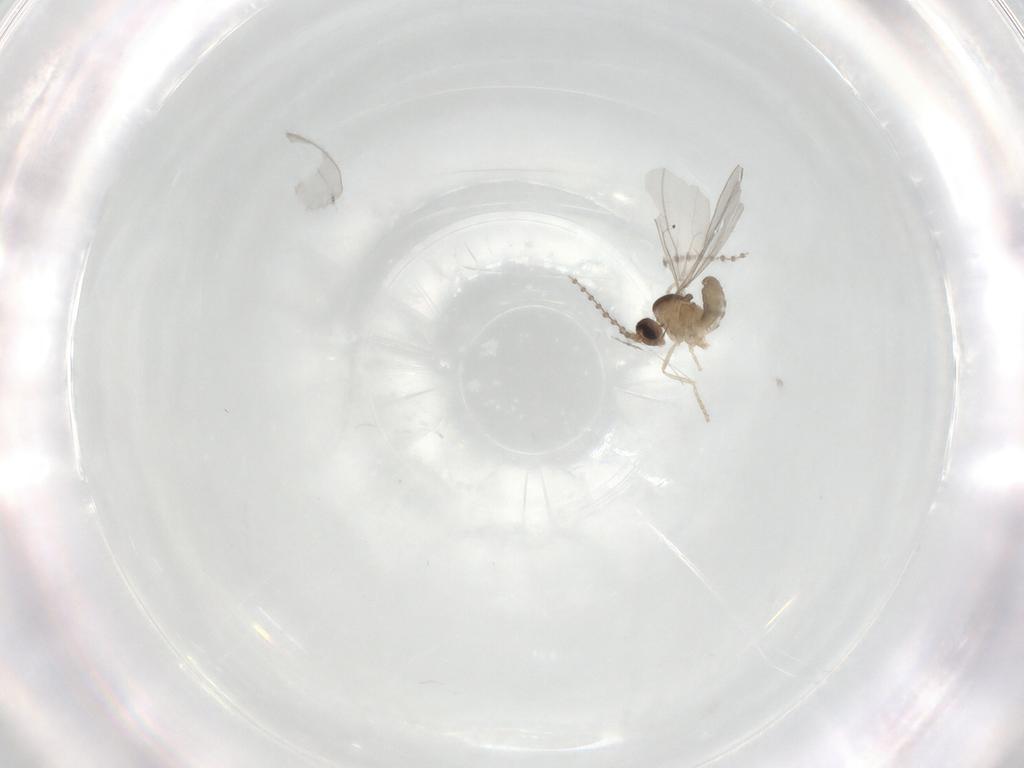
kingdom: Animalia
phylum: Arthropoda
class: Insecta
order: Diptera
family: Cecidomyiidae
